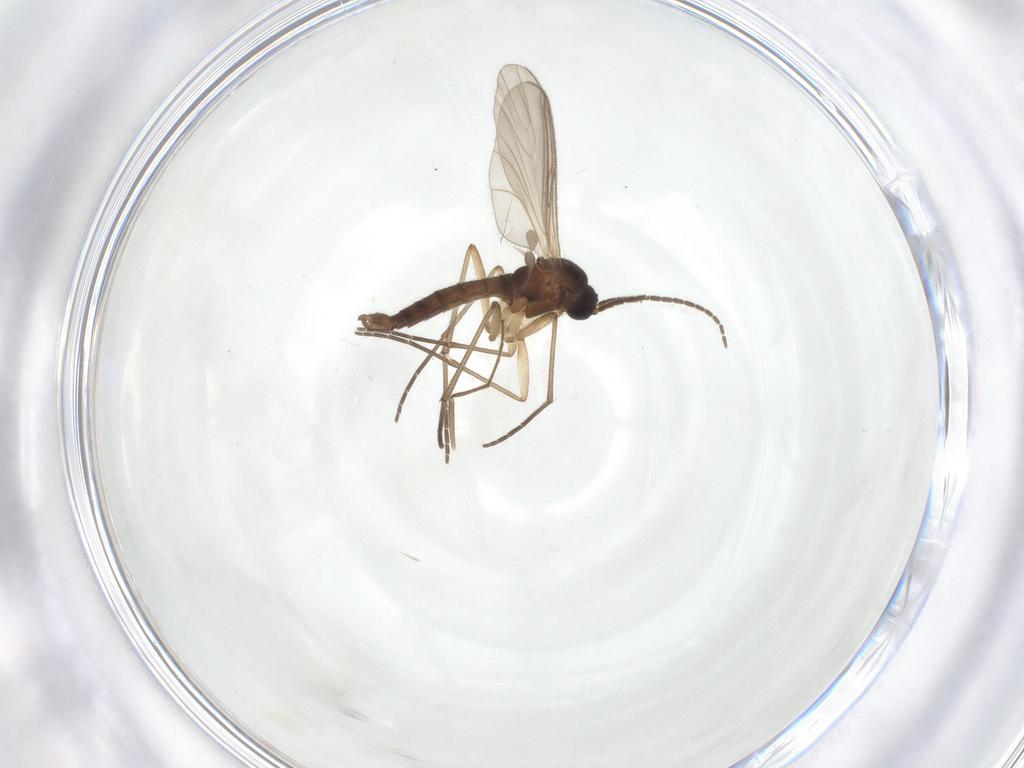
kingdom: Animalia
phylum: Arthropoda
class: Insecta
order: Diptera
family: Sciaridae
